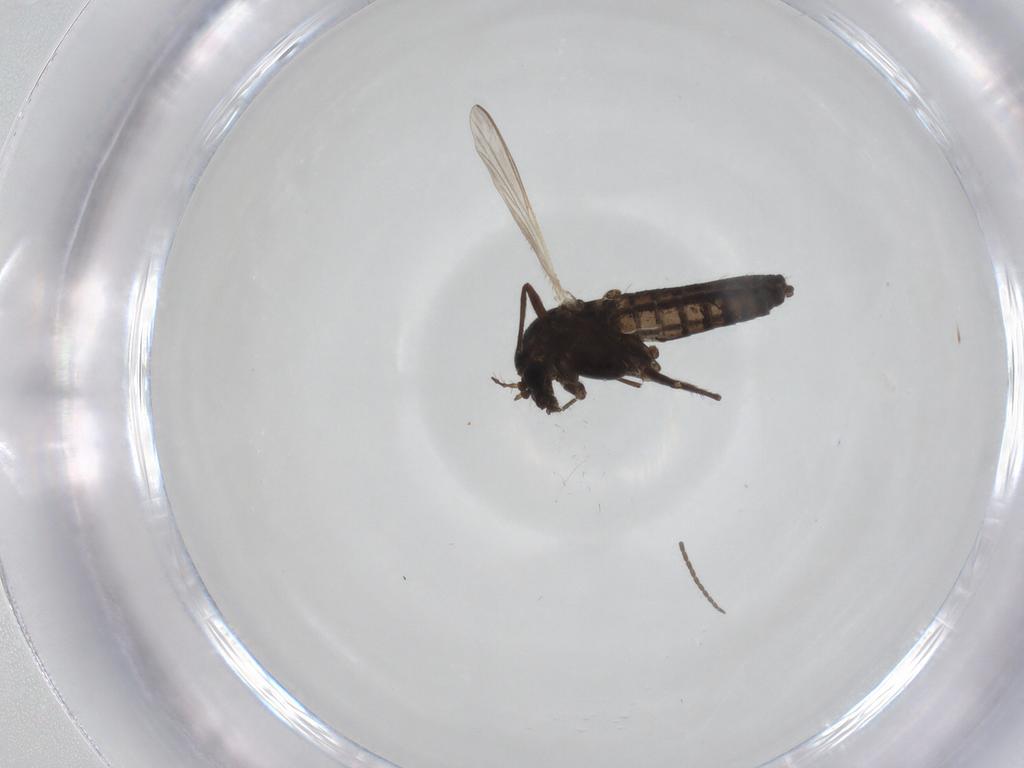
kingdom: Animalia
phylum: Arthropoda
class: Insecta
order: Diptera
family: Chironomidae
